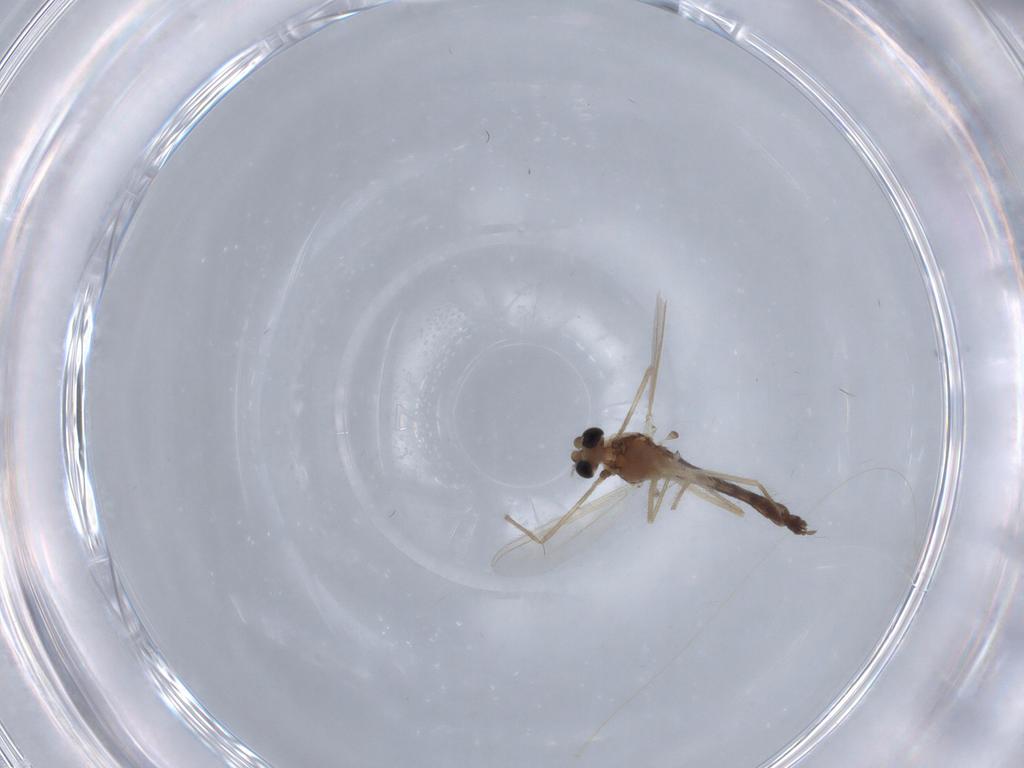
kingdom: Animalia
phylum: Arthropoda
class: Insecta
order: Diptera
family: Chironomidae
